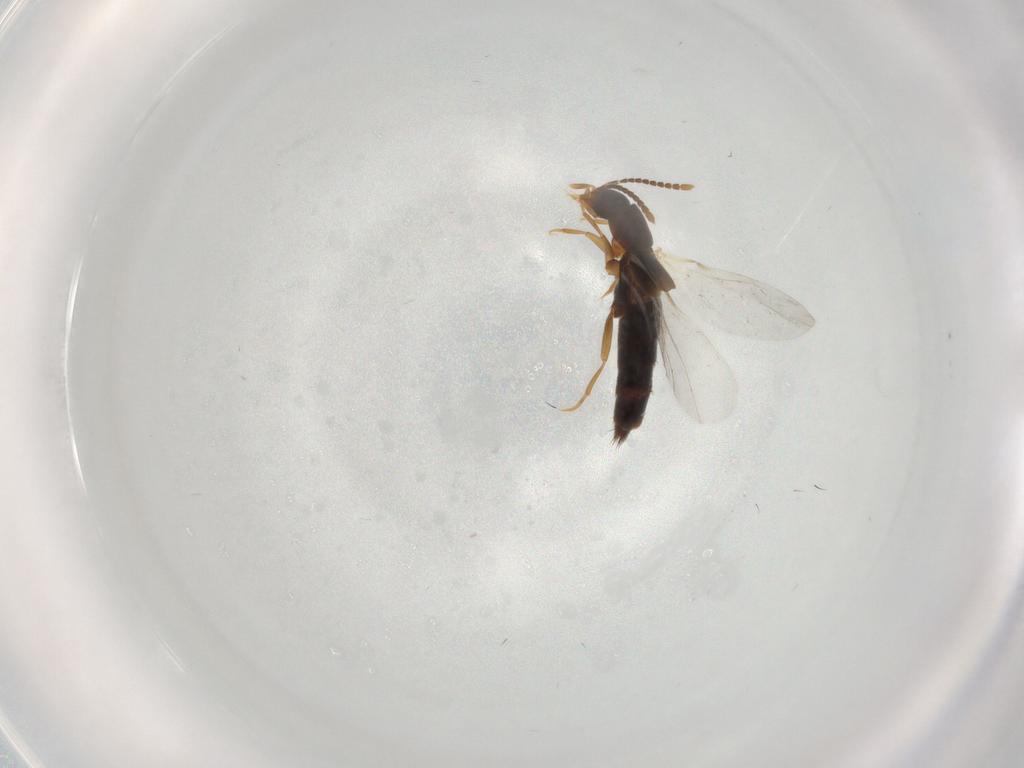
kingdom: Animalia
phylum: Arthropoda
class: Insecta
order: Coleoptera
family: Staphylinidae
